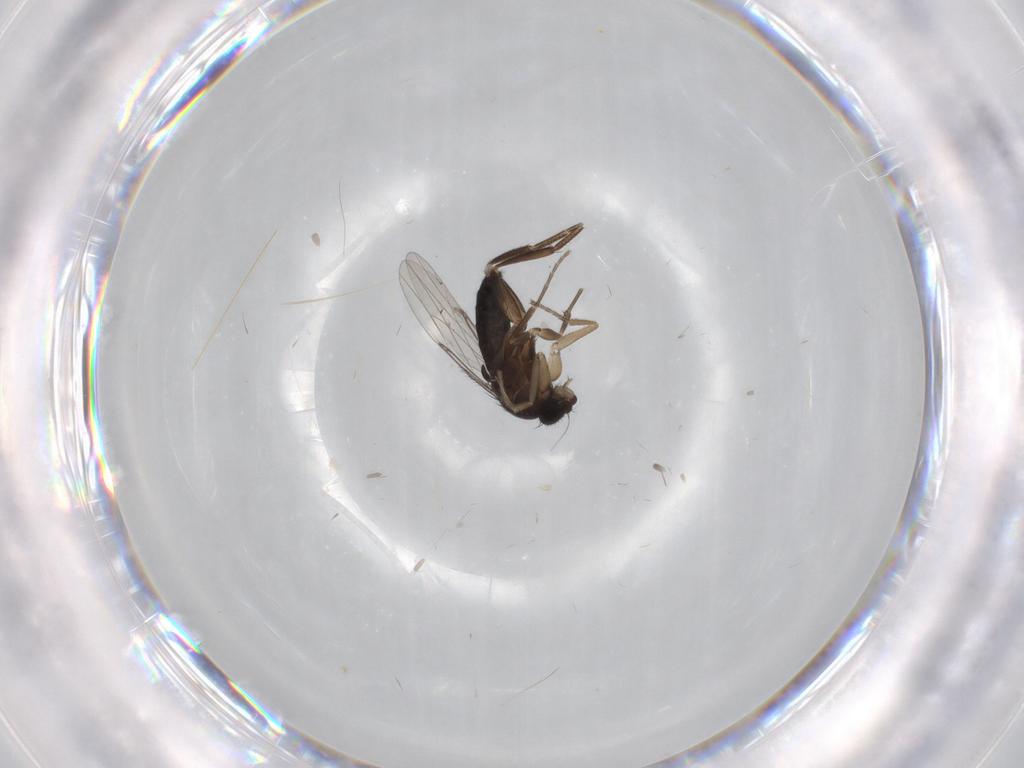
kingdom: Animalia
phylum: Arthropoda
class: Insecta
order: Diptera
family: Phoridae
